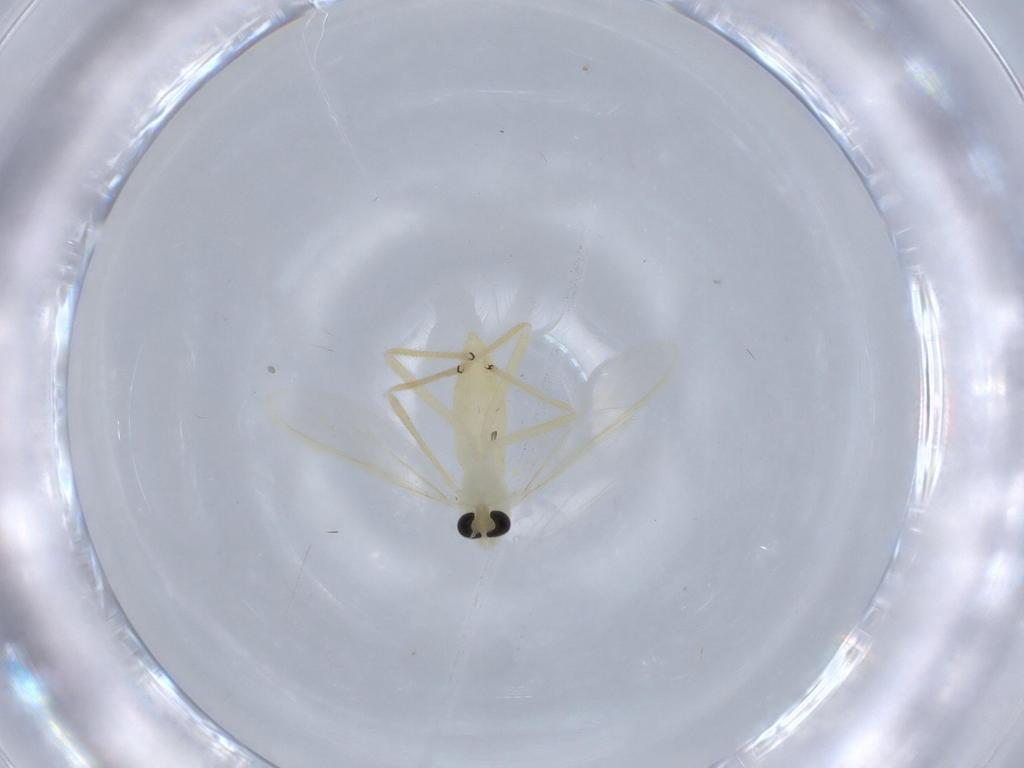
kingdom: Animalia
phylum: Arthropoda
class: Insecta
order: Diptera
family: Chironomidae
